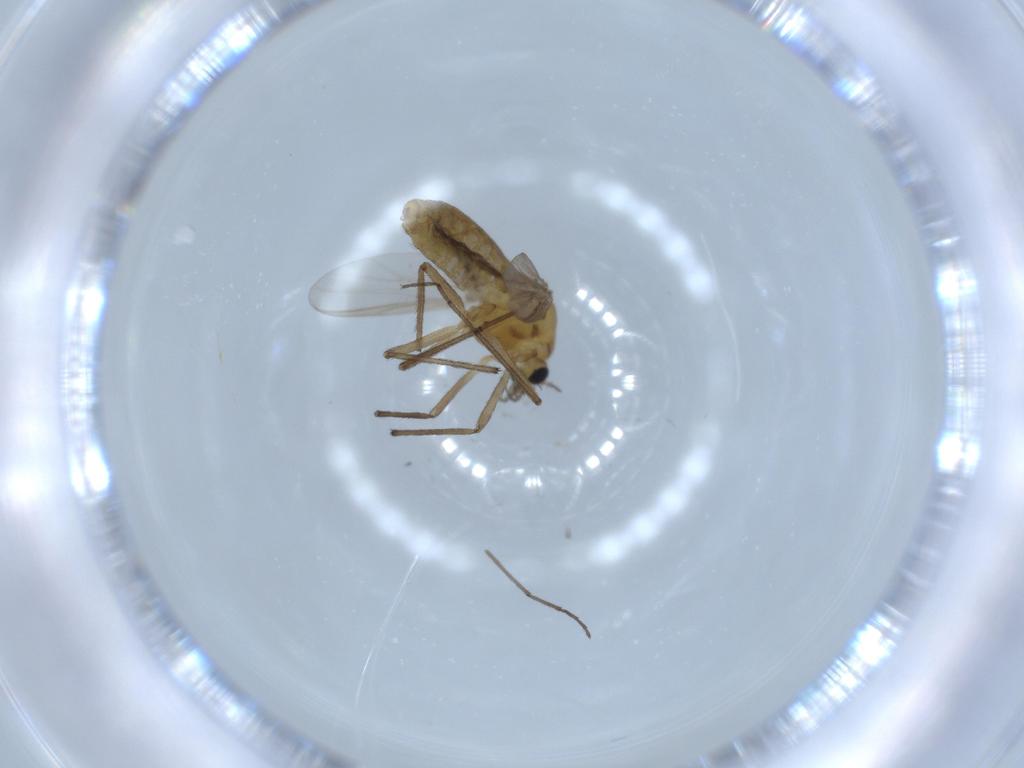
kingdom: Animalia
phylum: Arthropoda
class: Insecta
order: Diptera
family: Chironomidae
